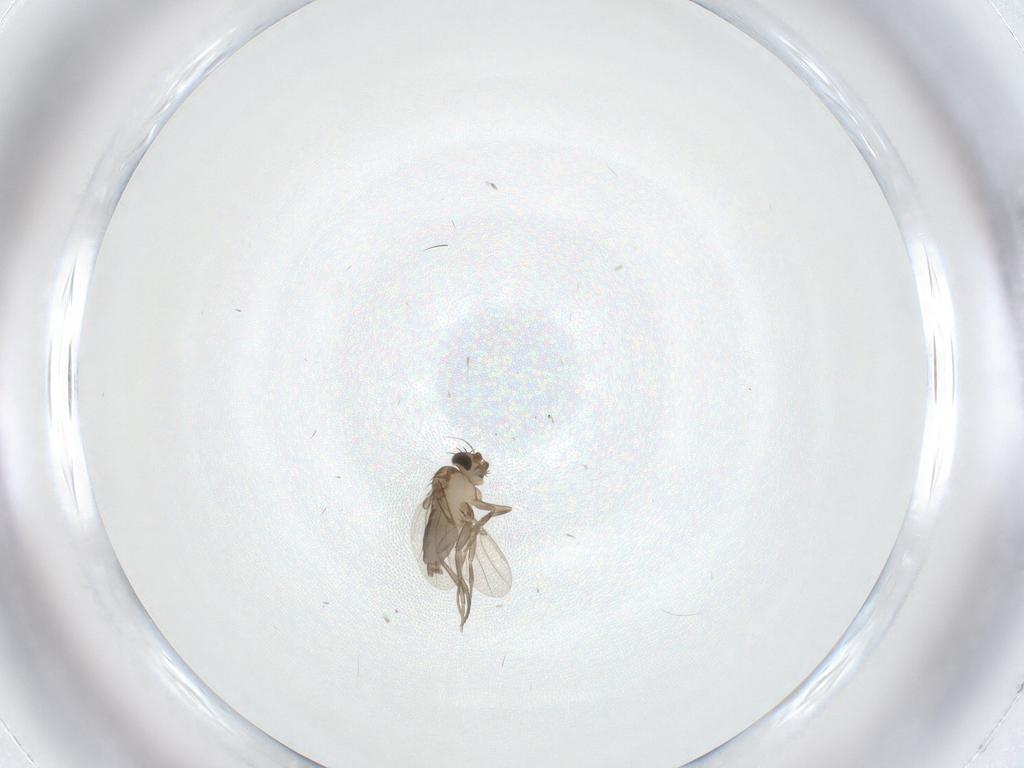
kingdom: Animalia
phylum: Arthropoda
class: Insecta
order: Diptera
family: Phoridae
